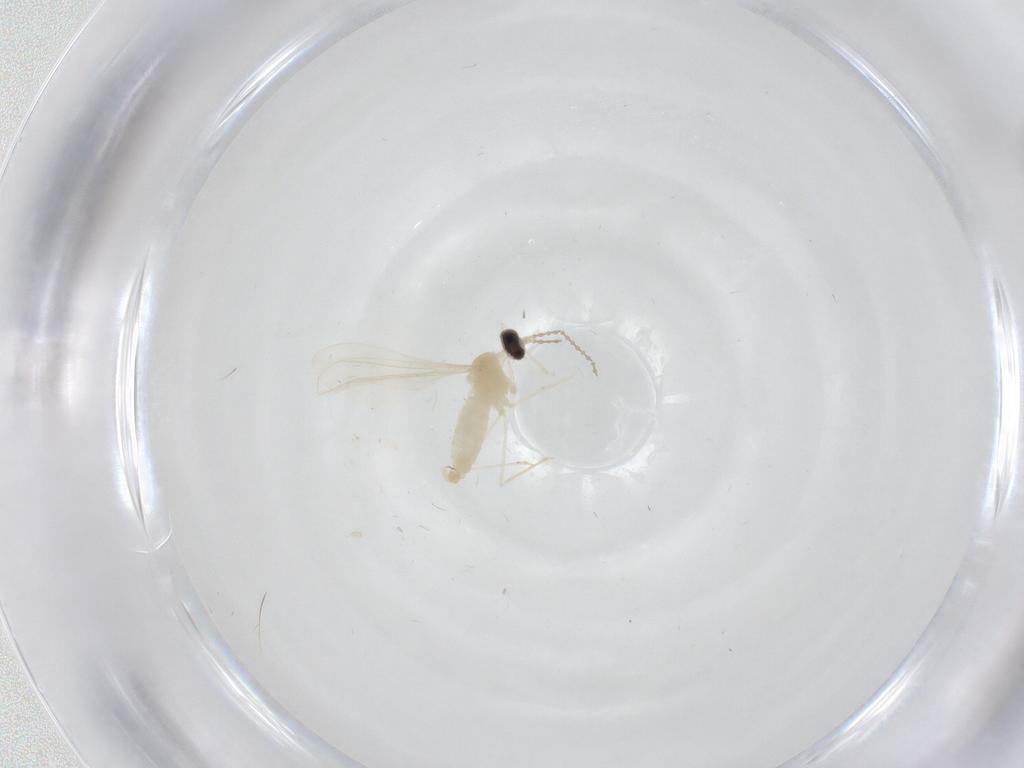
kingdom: Animalia
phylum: Arthropoda
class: Insecta
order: Diptera
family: Cecidomyiidae
